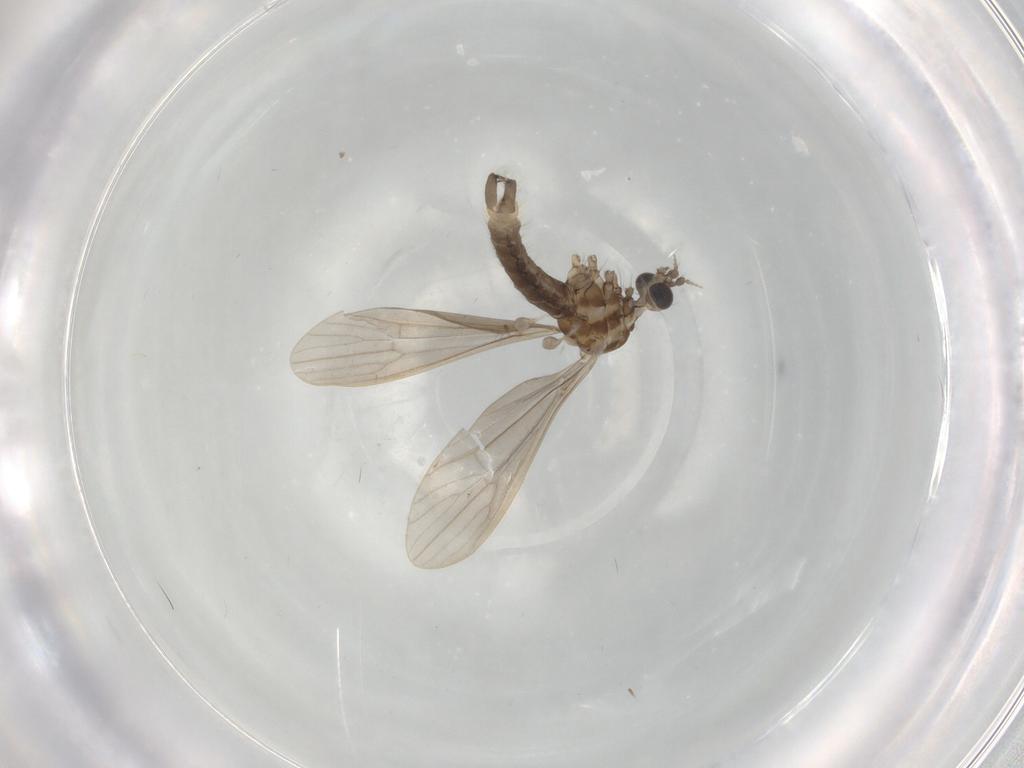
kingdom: Animalia
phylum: Arthropoda
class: Insecta
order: Diptera
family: Limoniidae
